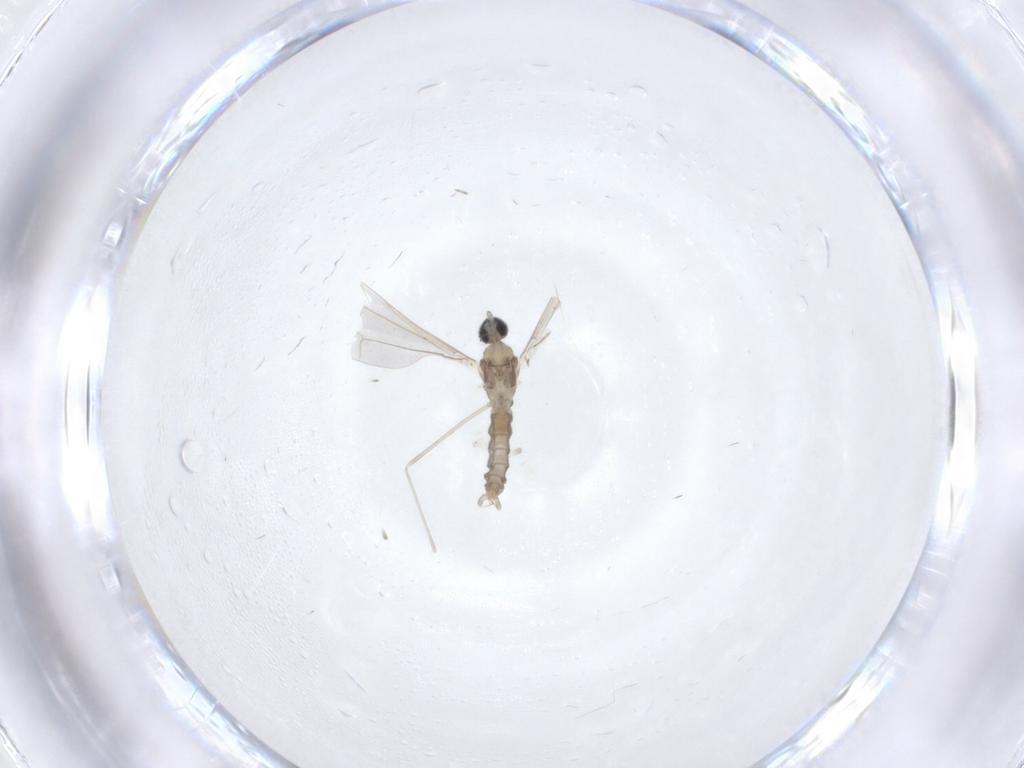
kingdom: Animalia
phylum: Arthropoda
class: Insecta
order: Diptera
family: Cecidomyiidae
